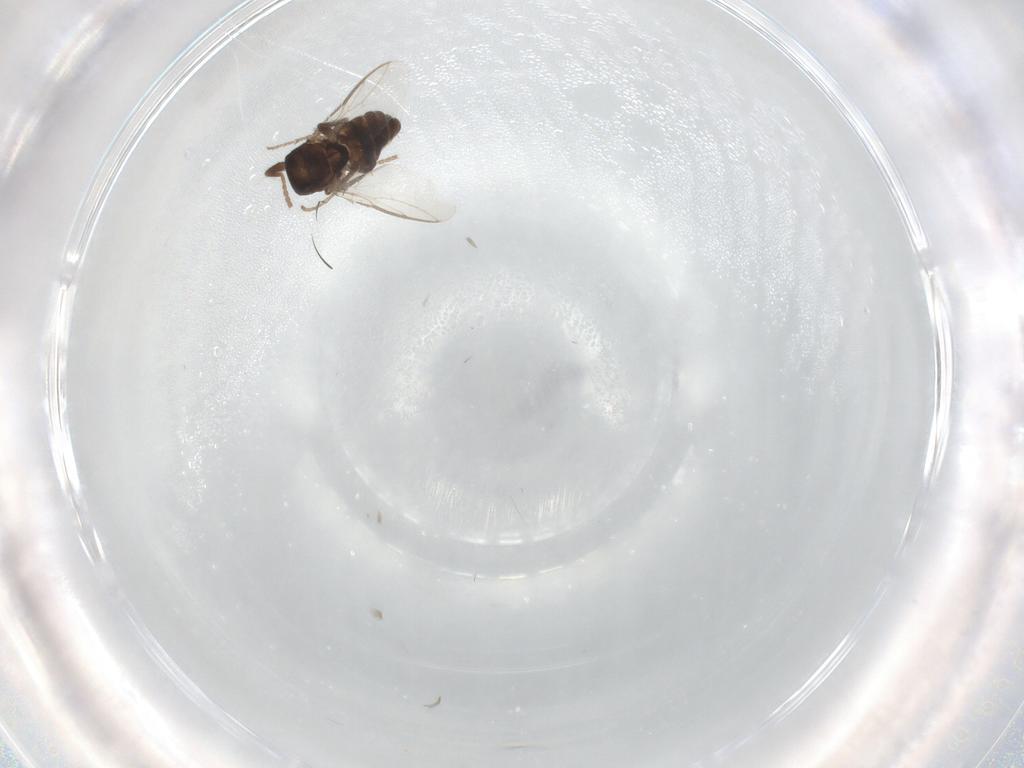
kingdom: Animalia
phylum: Arthropoda
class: Insecta
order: Diptera
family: Sphaeroceridae
